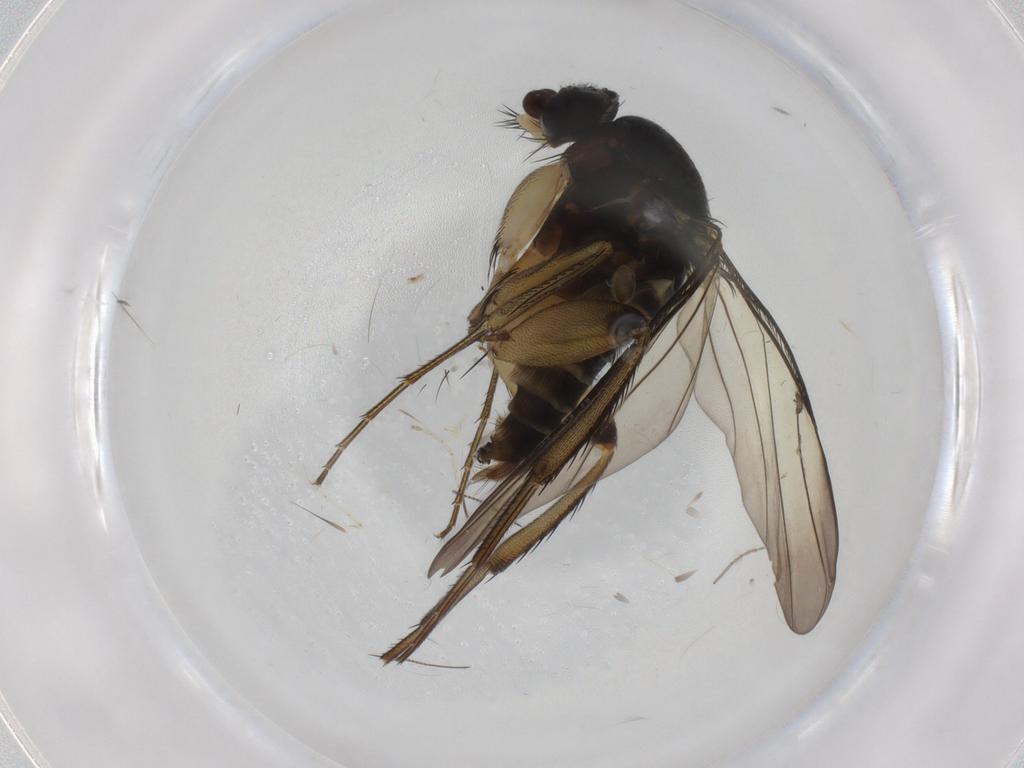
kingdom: Animalia
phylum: Arthropoda
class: Insecta
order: Diptera
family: Phoridae
